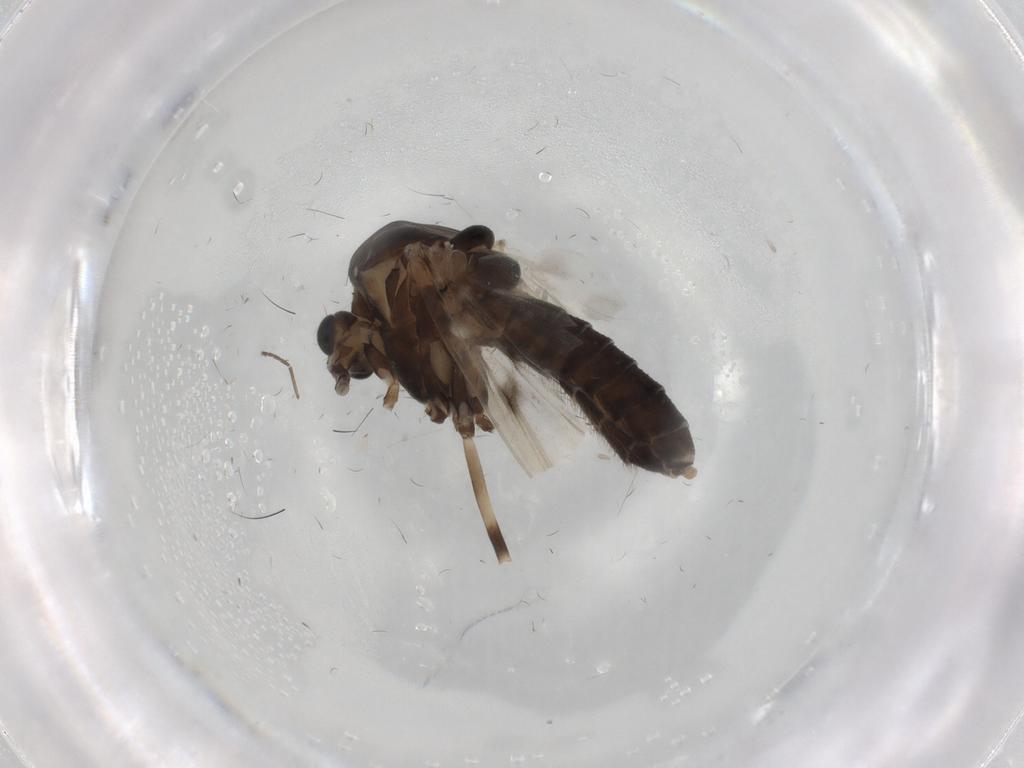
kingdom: Animalia
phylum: Arthropoda
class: Insecta
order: Diptera
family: Chironomidae
